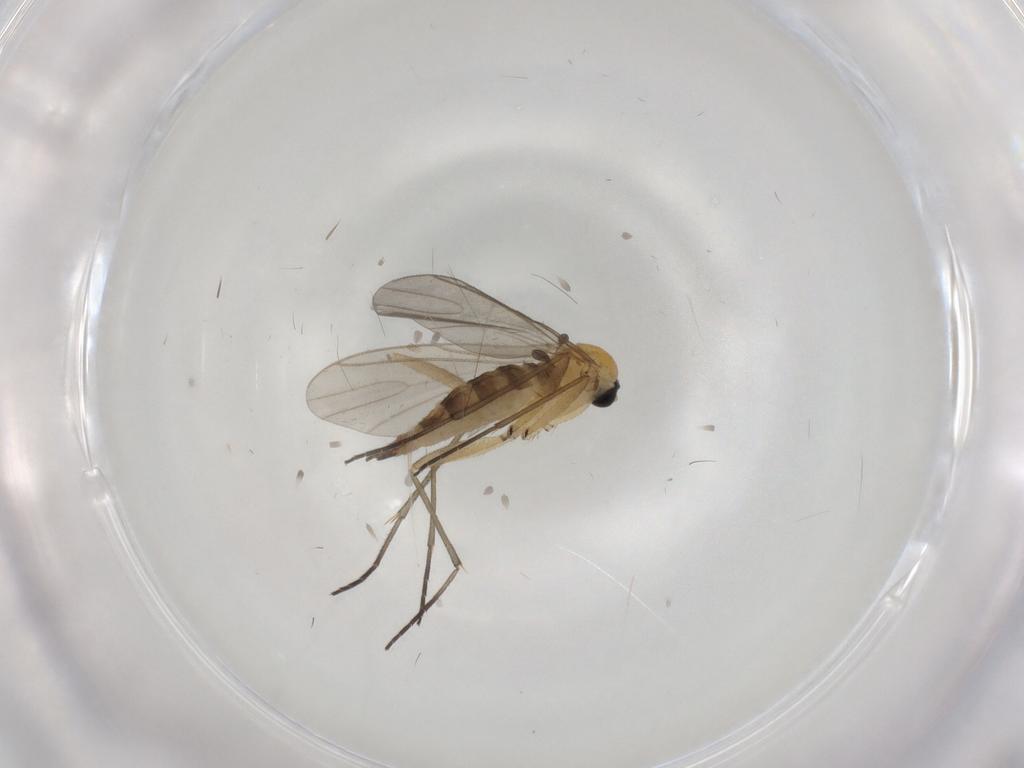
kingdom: Animalia
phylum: Arthropoda
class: Insecta
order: Diptera
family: Sciaridae
